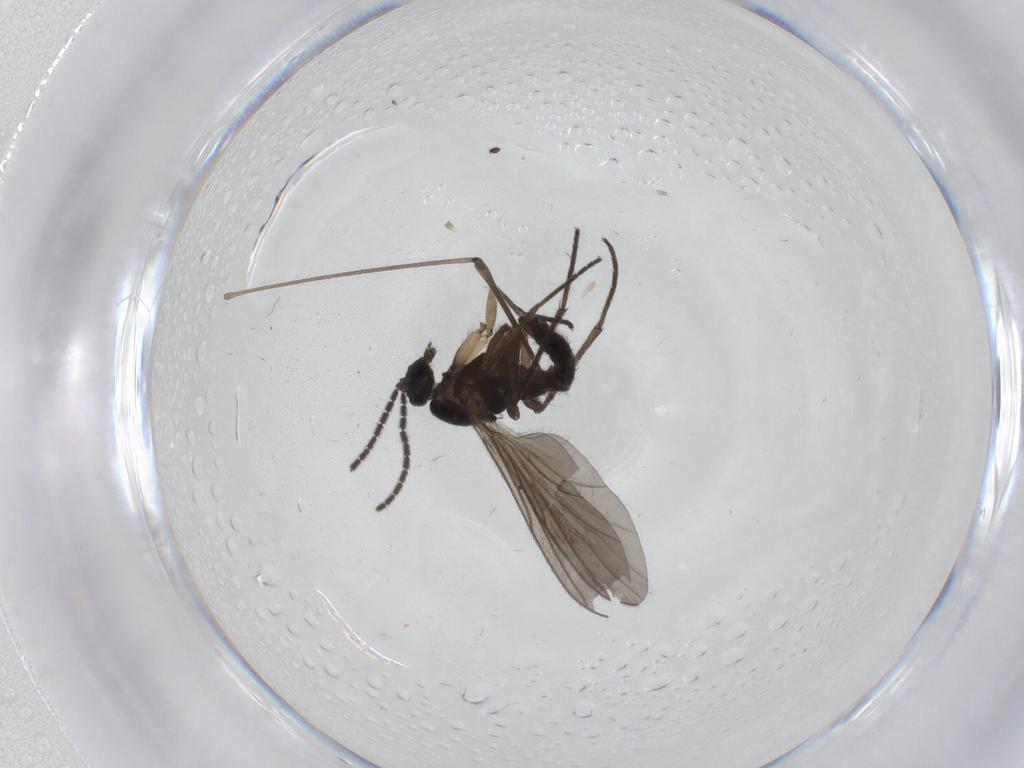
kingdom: Animalia
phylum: Arthropoda
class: Insecta
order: Diptera
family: Limoniidae
